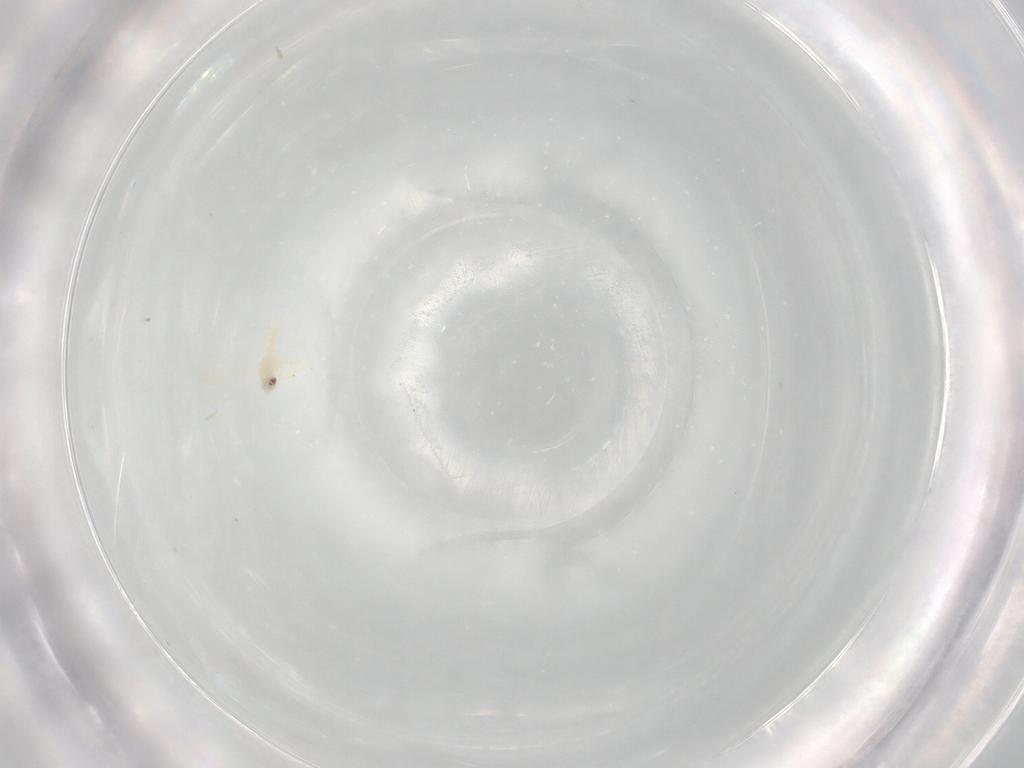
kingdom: Animalia
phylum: Arthropoda
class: Insecta
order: Hemiptera
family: Aleyrodidae
